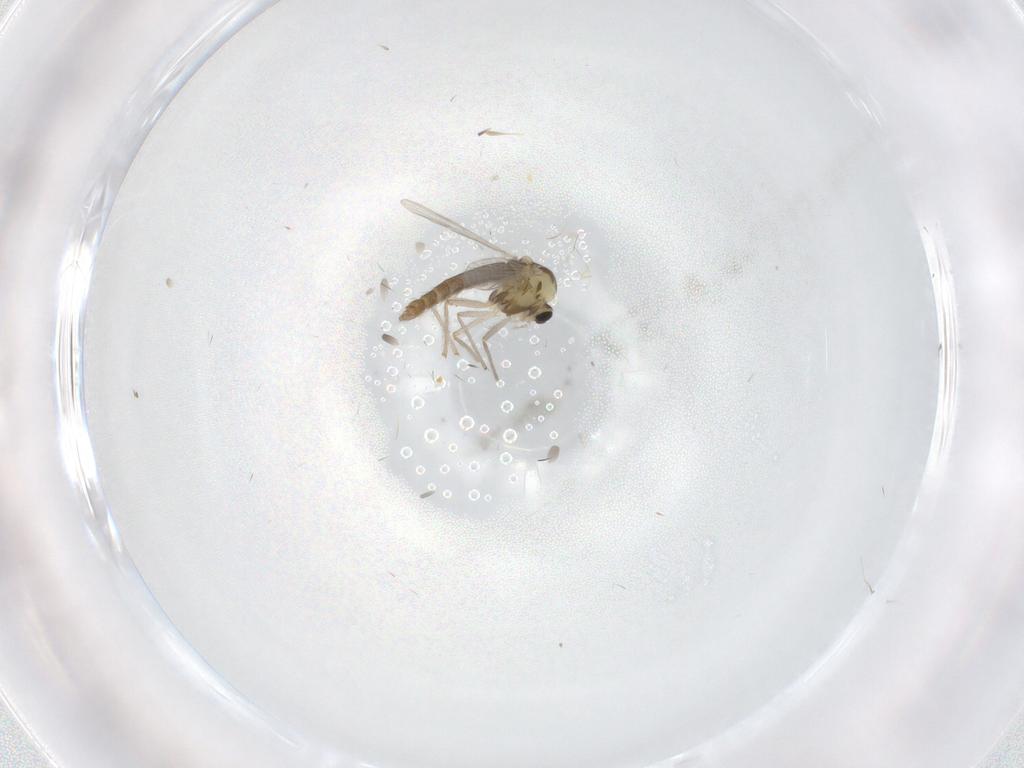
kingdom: Animalia
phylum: Arthropoda
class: Insecta
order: Diptera
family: Chironomidae
